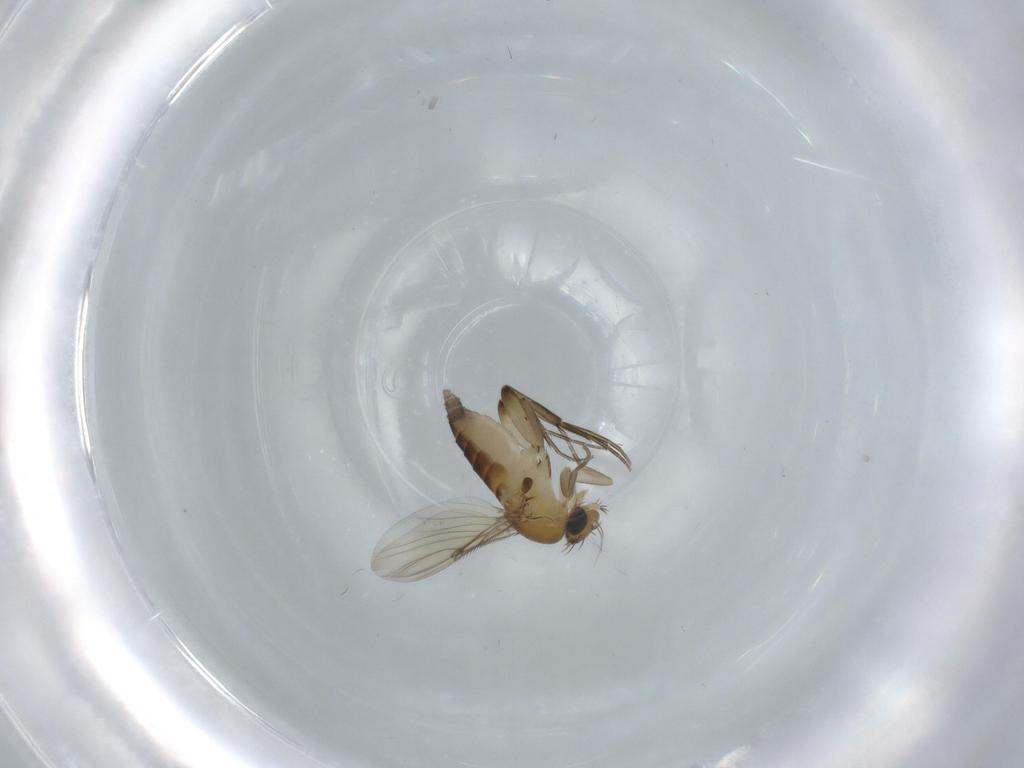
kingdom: Animalia
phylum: Arthropoda
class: Insecta
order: Diptera
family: Phoridae
